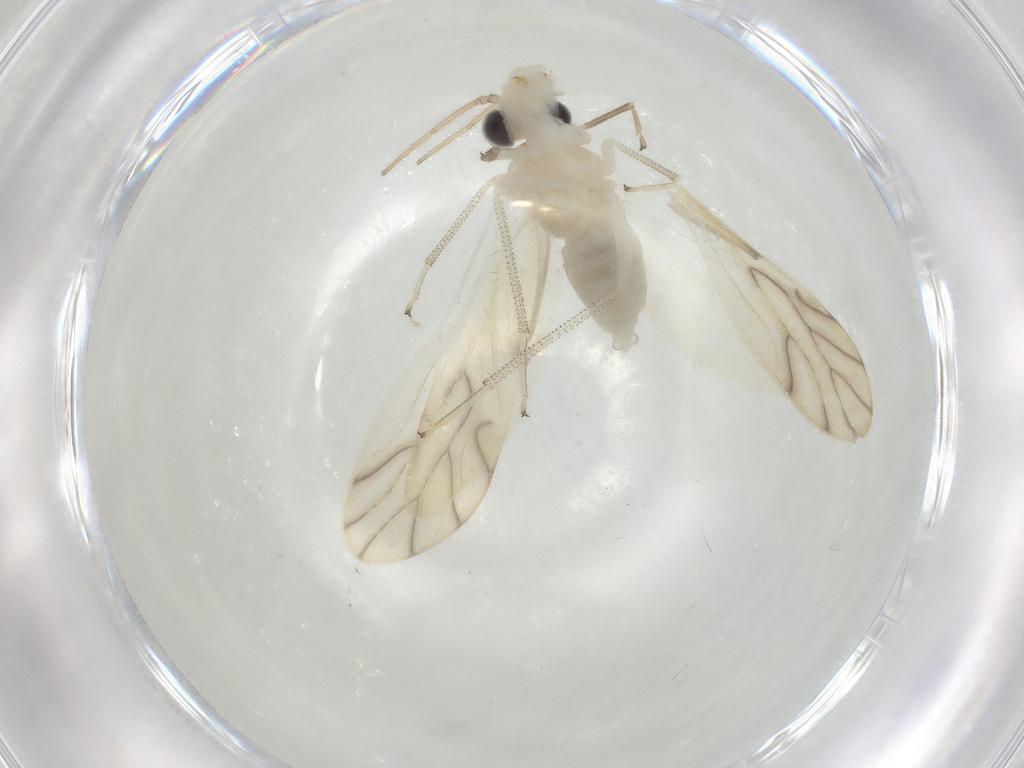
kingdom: Animalia
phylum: Arthropoda
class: Insecta
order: Psocodea
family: Caeciliusidae
